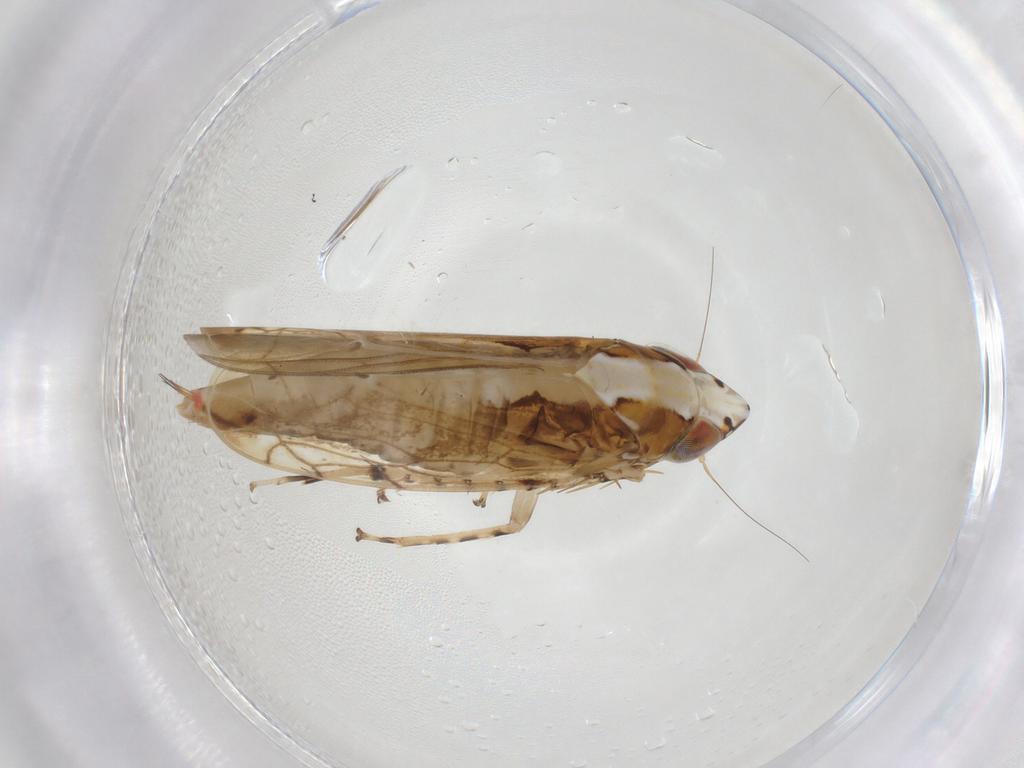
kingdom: Animalia
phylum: Arthropoda
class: Insecta
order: Hemiptera
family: Cicadellidae
